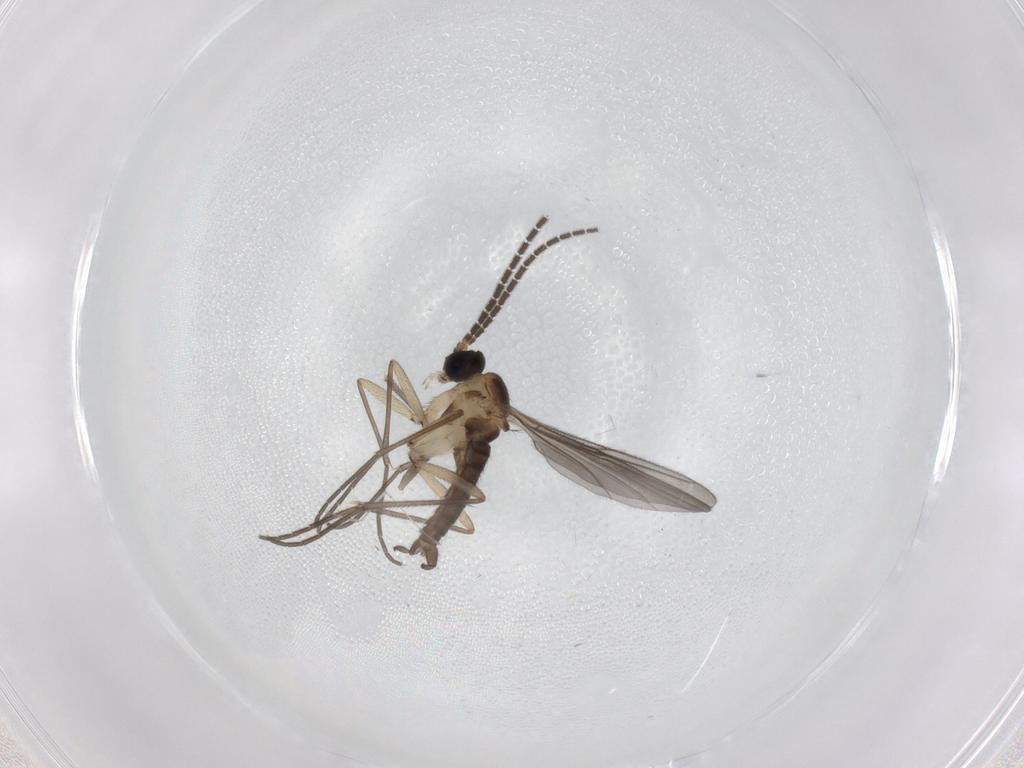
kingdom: Animalia
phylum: Arthropoda
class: Insecta
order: Diptera
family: Sciaridae
